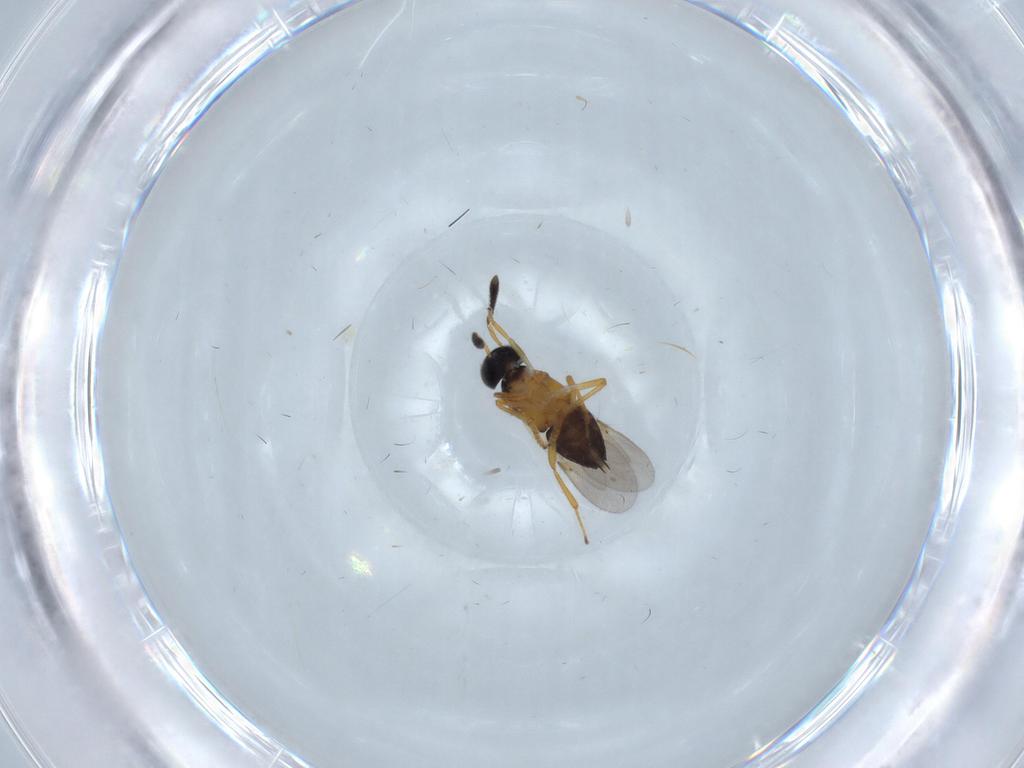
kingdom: Animalia
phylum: Arthropoda
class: Insecta
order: Hymenoptera
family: Encyrtidae
